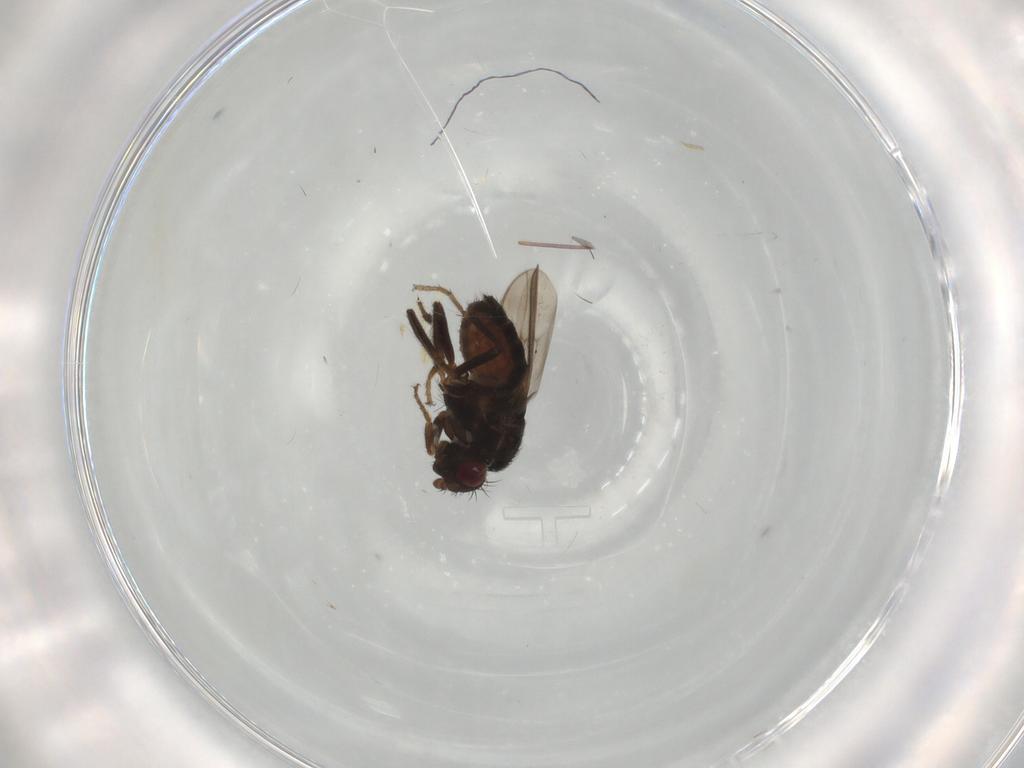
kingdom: Animalia
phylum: Arthropoda
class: Insecta
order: Diptera
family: Sphaeroceridae
